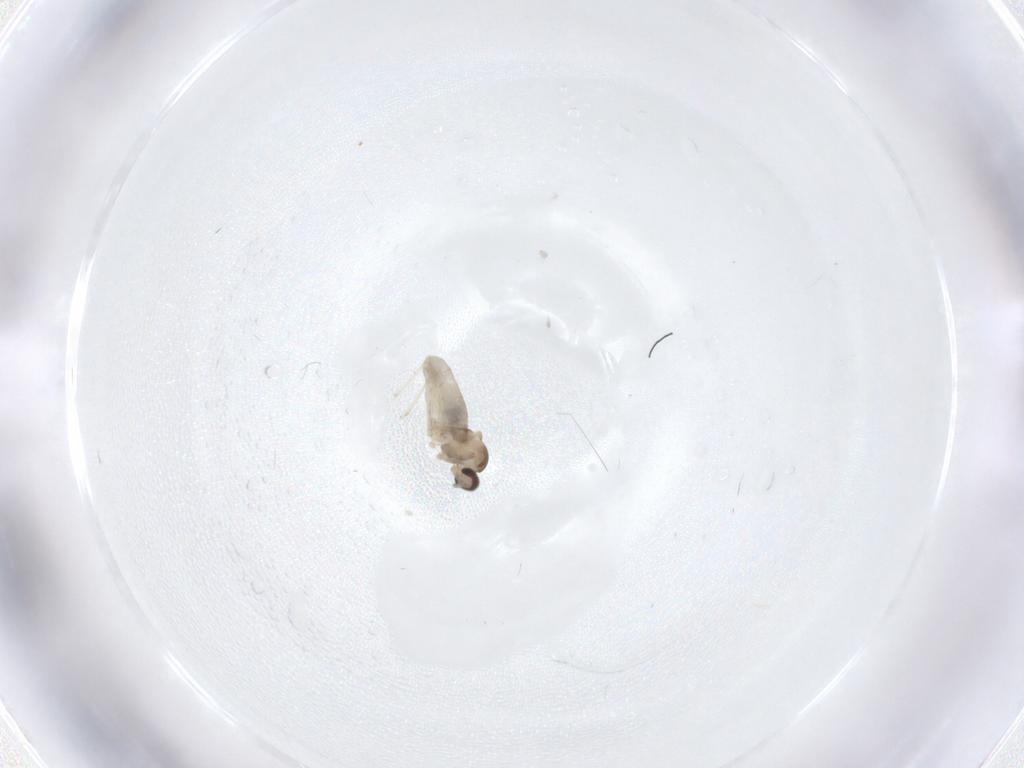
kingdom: Animalia
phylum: Arthropoda
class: Insecta
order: Diptera
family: Cecidomyiidae
